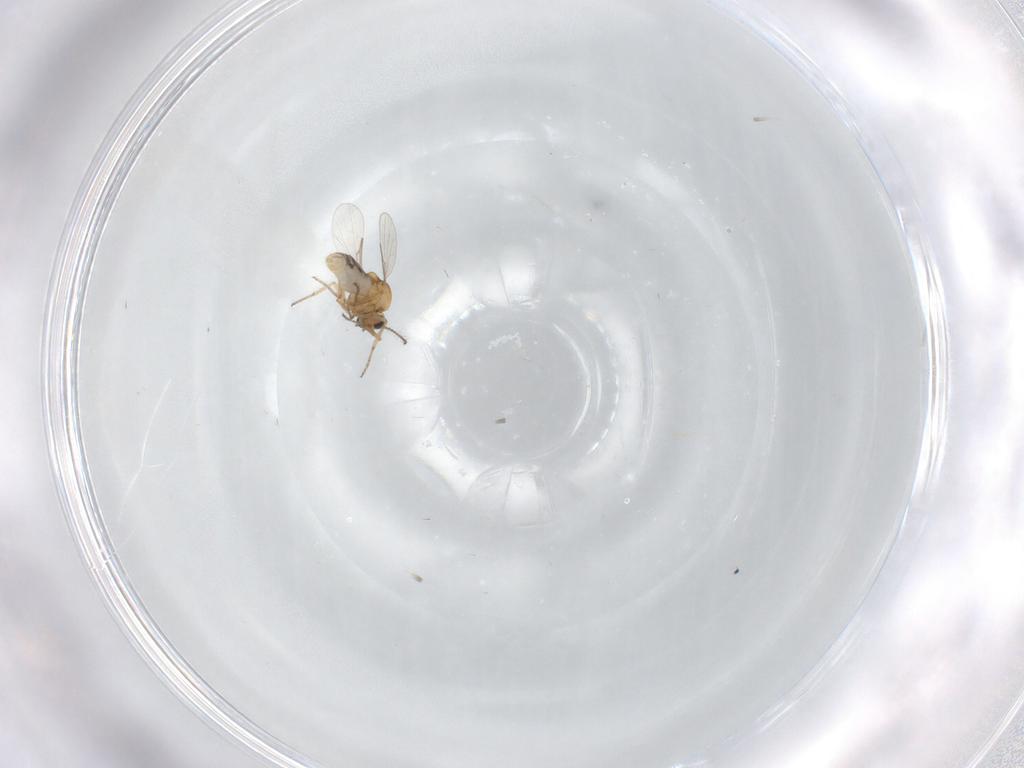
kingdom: Animalia
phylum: Arthropoda
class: Insecta
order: Diptera
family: Ceratopogonidae
